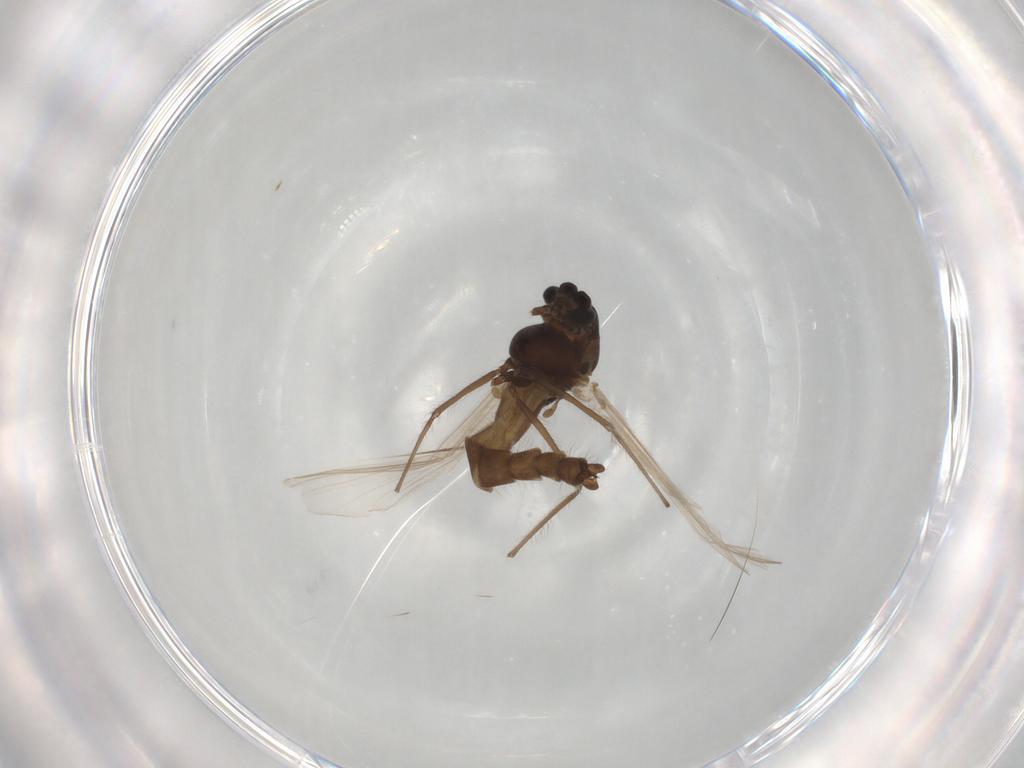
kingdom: Animalia
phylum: Arthropoda
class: Insecta
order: Diptera
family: Chironomidae
